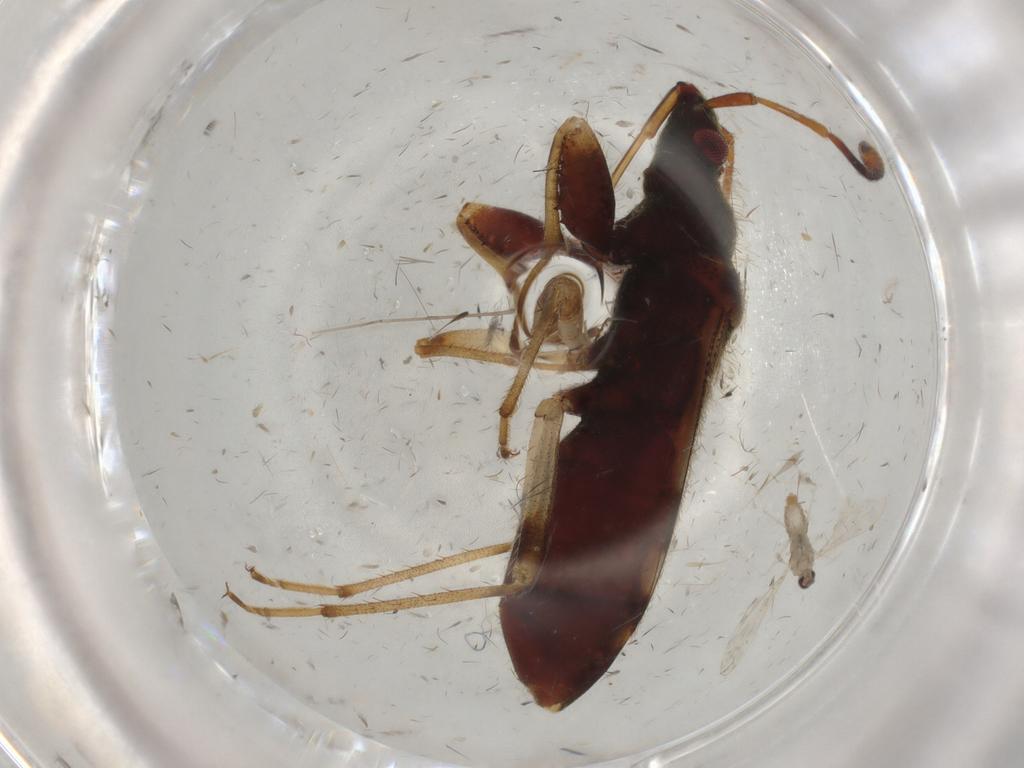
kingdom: Animalia
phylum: Arthropoda
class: Insecta
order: Diptera
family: Cecidomyiidae
